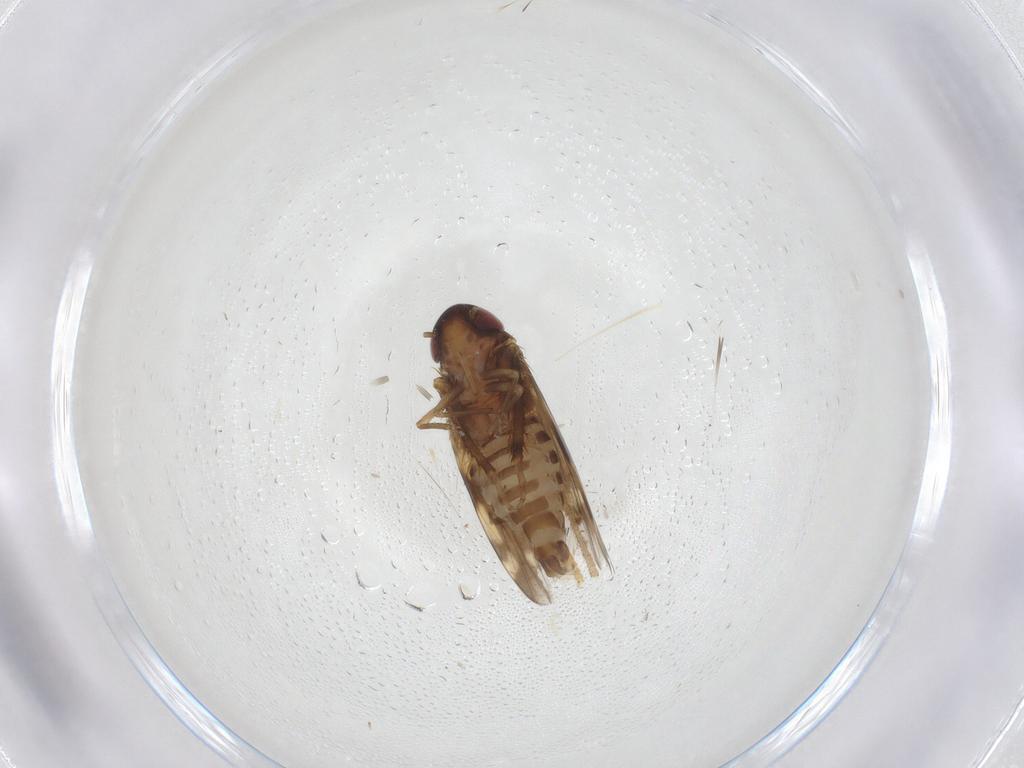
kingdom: Animalia
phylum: Arthropoda
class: Insecta
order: Hemiptera
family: Cicadellidae
